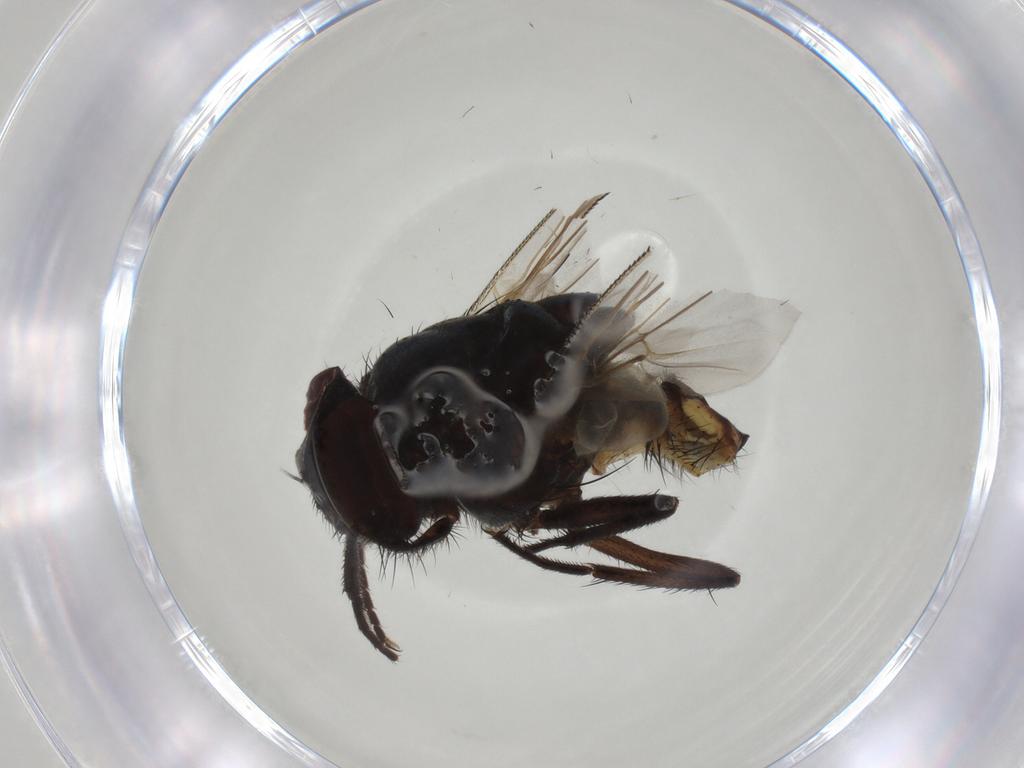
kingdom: Animalia
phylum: Arthropoda
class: Insecta
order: Diptera
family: Muscidae
